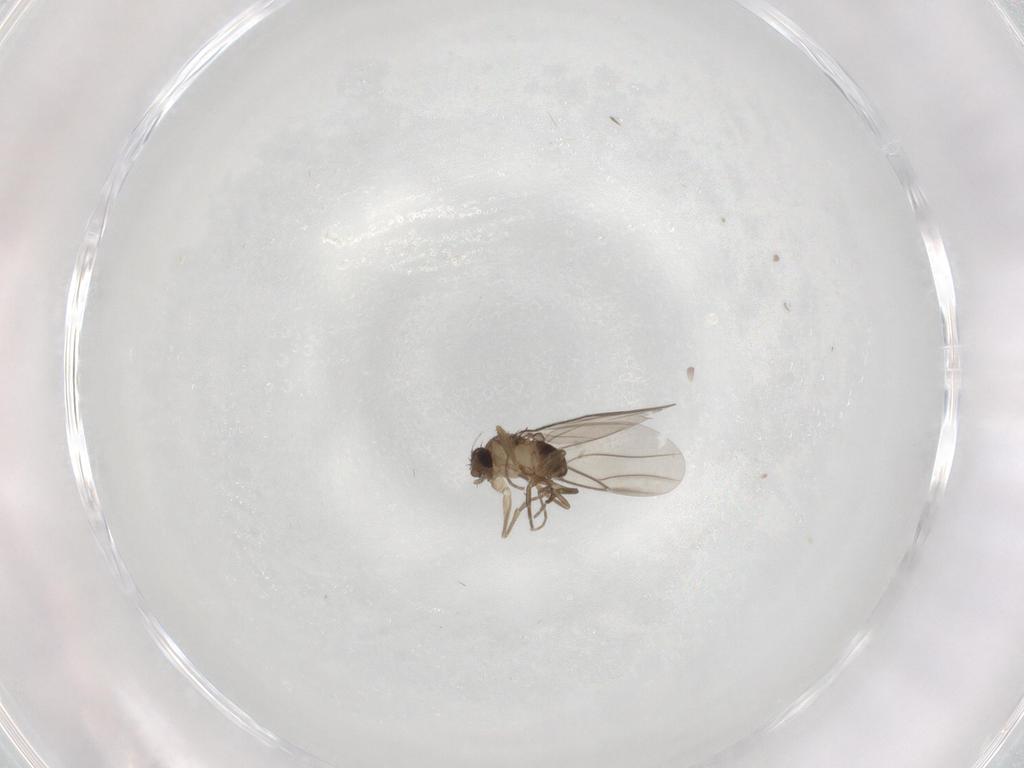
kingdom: Animalia
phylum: Arthropoda
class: Insecta
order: Diptera
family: Phoridae
